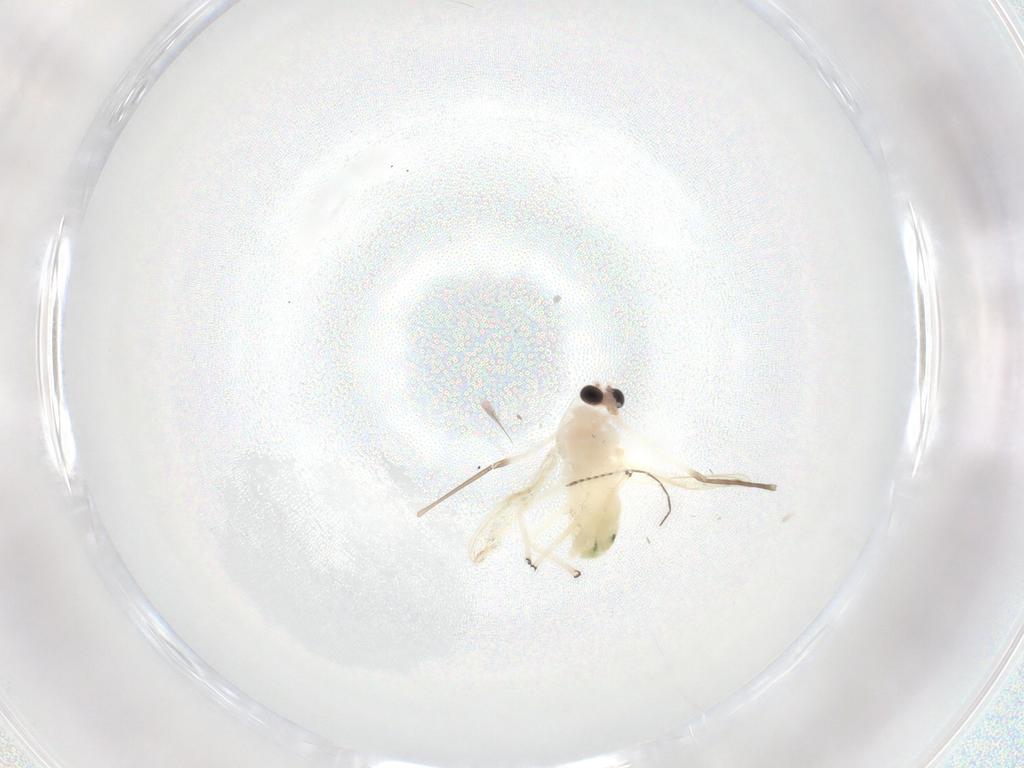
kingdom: Animalia
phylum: Arthropoda
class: Insecta
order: Diptera
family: Chironomidae
